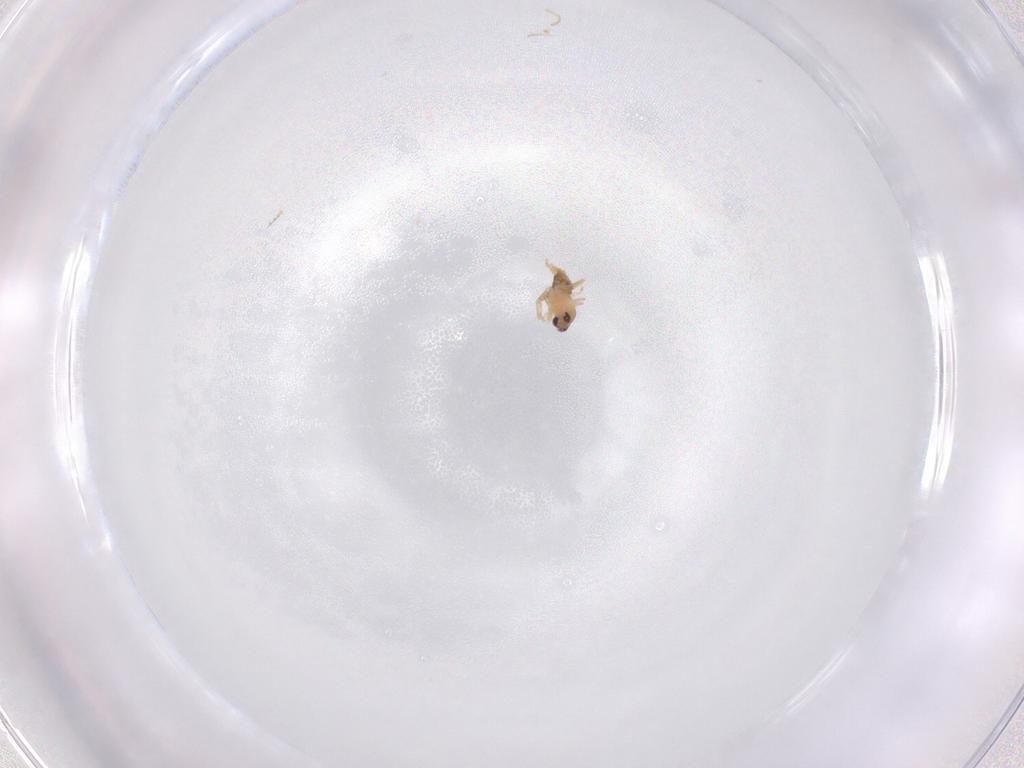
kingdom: Animalia
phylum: Arthropoda
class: Insecta
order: Diptera
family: Cecidomyiidae
